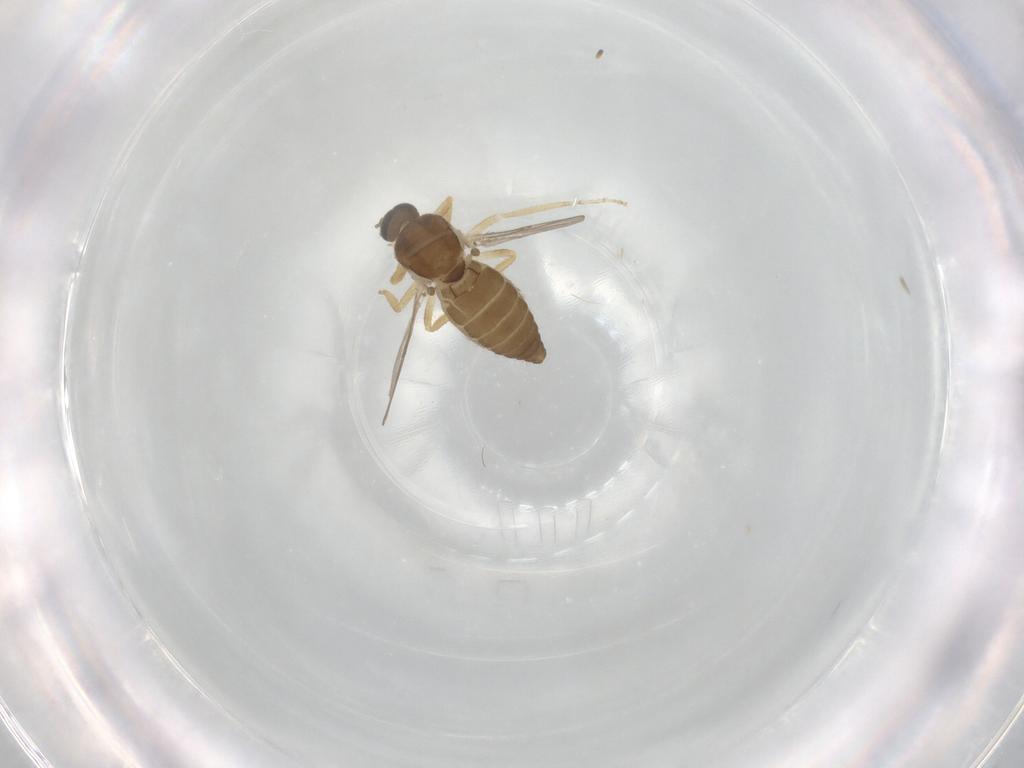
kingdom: Animalia
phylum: Arthropoda
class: Insecta
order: Diptera
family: Ceratopogonidae
